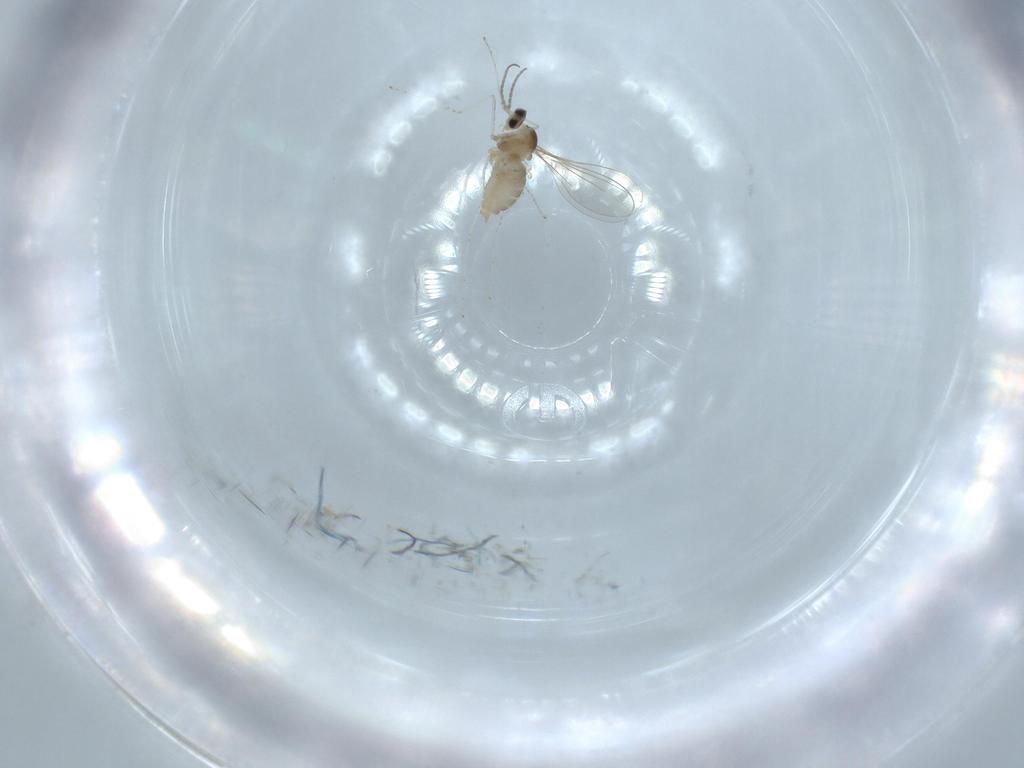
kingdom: Animalia
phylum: Arthropoda
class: Insecta
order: Diptera
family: Cecidomyiidae
